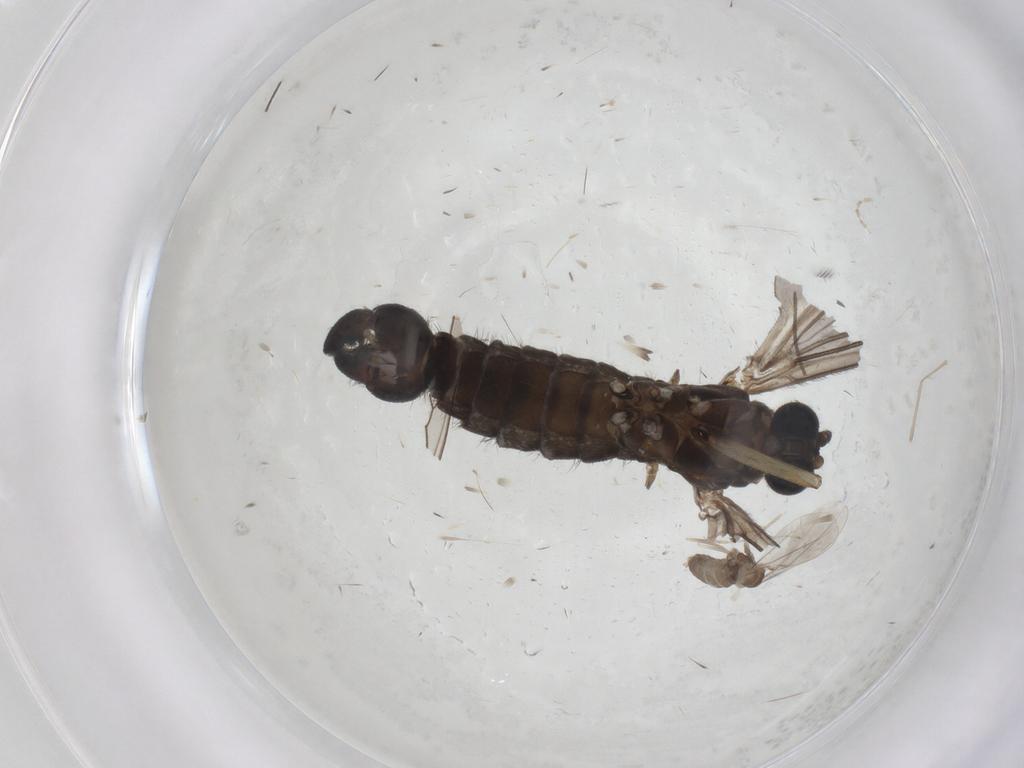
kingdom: Animalia
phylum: Arthropoda
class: Insecta
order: Diptera
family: Sciaridae
